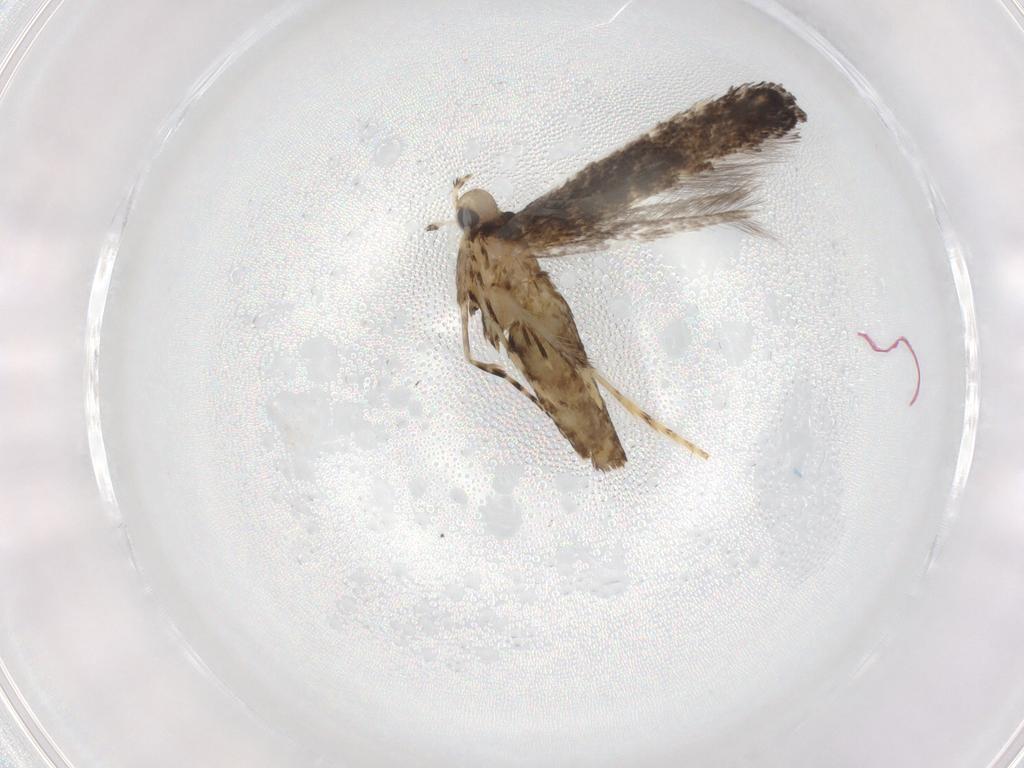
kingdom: Animalia
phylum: Arthropoda
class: Insecta
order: Lepidoptera
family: Gracillariidae
